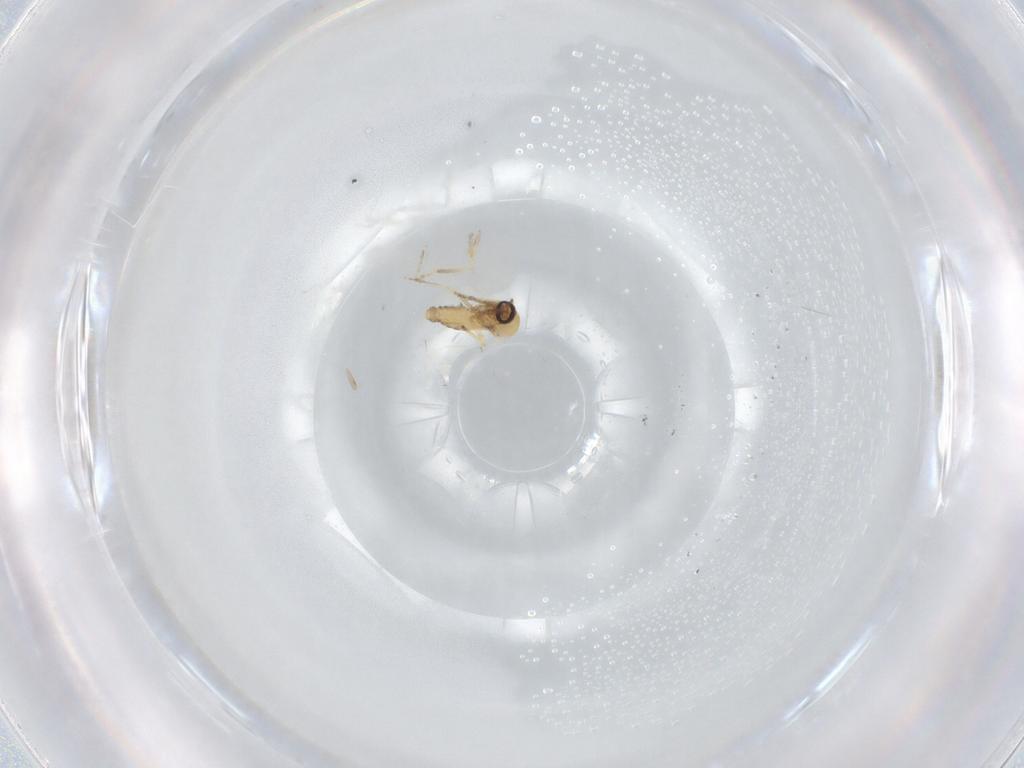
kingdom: Animalia
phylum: Arthropoda
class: Insecta
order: Diptera
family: Ceratopogonidae
